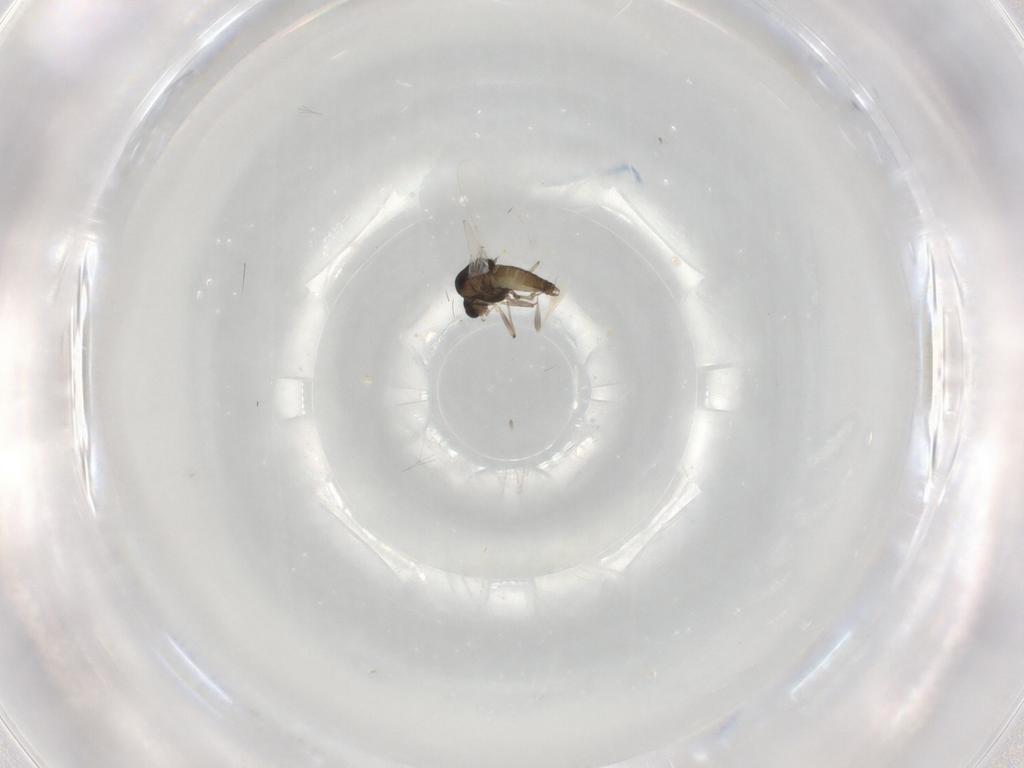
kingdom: Animalia
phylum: Arthropoda
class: Insecta
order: Diptera
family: Chironomidae
